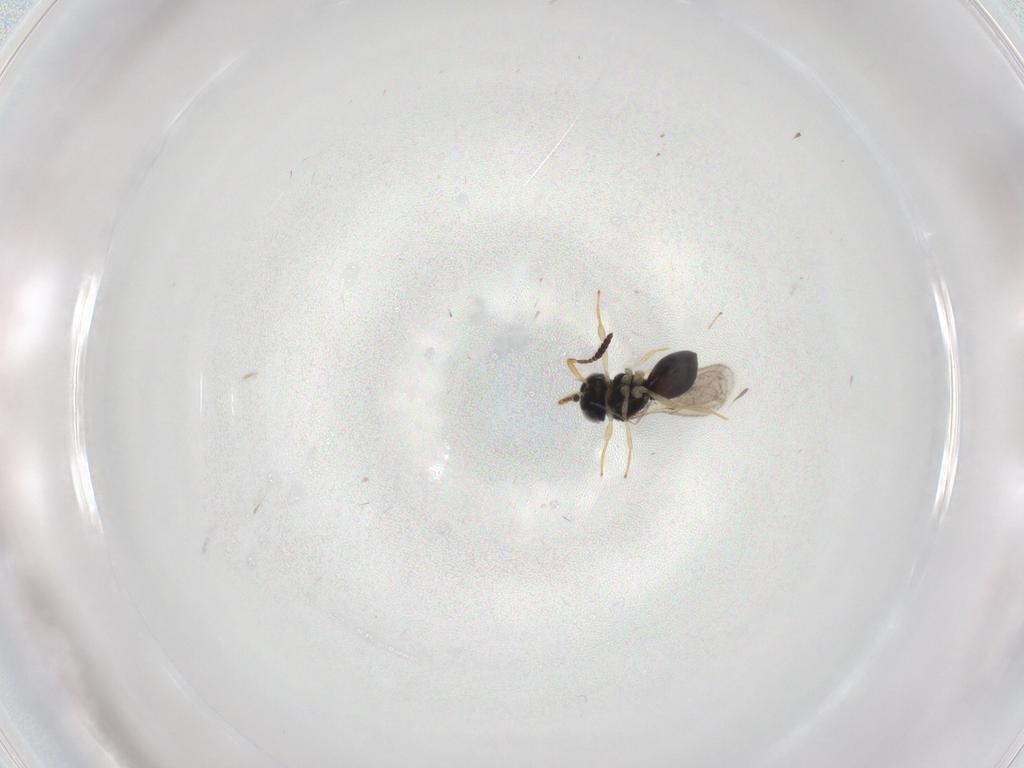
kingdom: Animalia
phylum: Arthropoda
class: Insecta
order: Hymenoptera
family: Scelionidae
